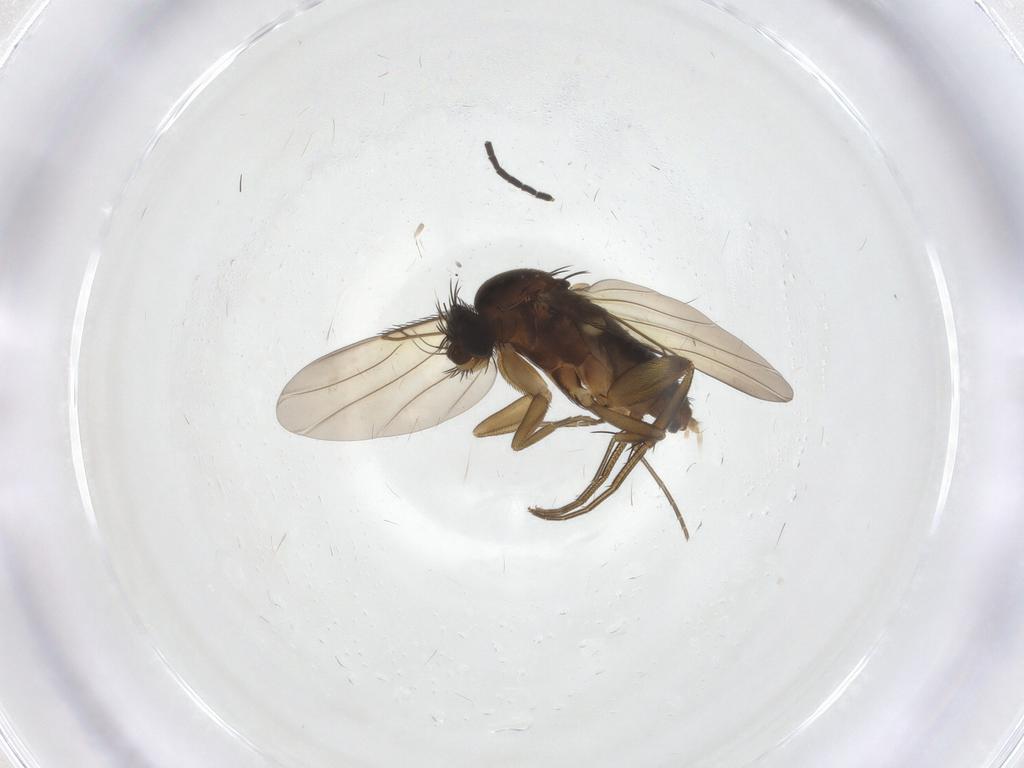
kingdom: Animalia
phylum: Arthropoda
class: Insecta
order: Diptera
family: Phoridae
